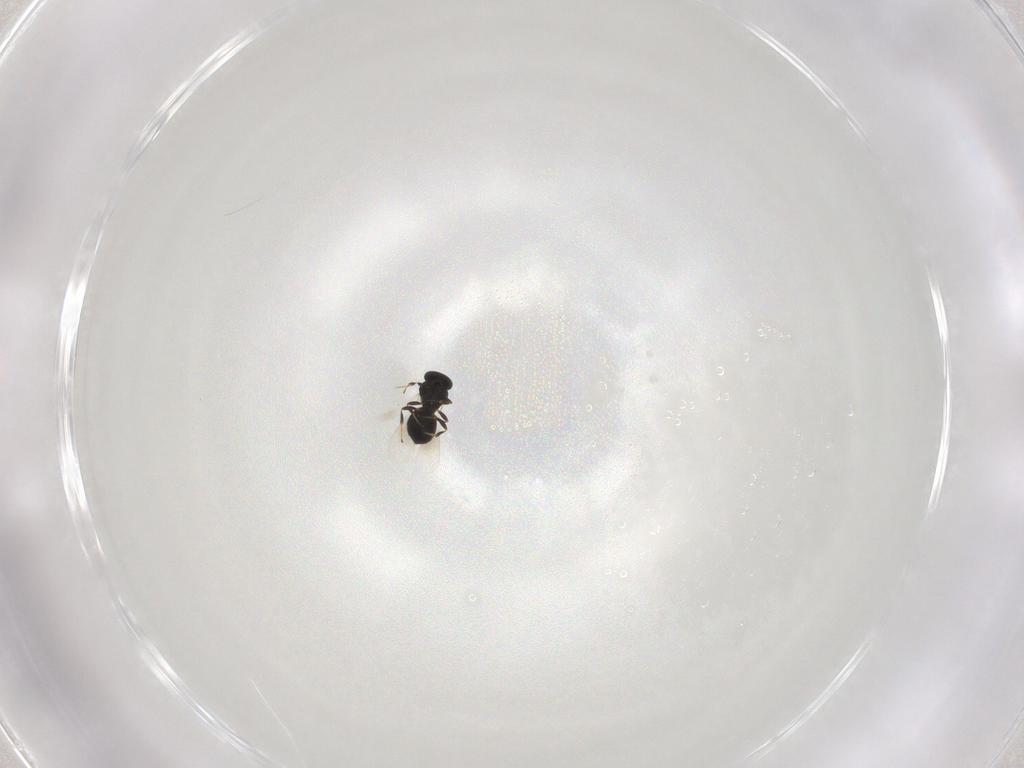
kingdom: Animalia
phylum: Arthropoda
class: Insecta
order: Hymenoptera
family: Platygastridae
